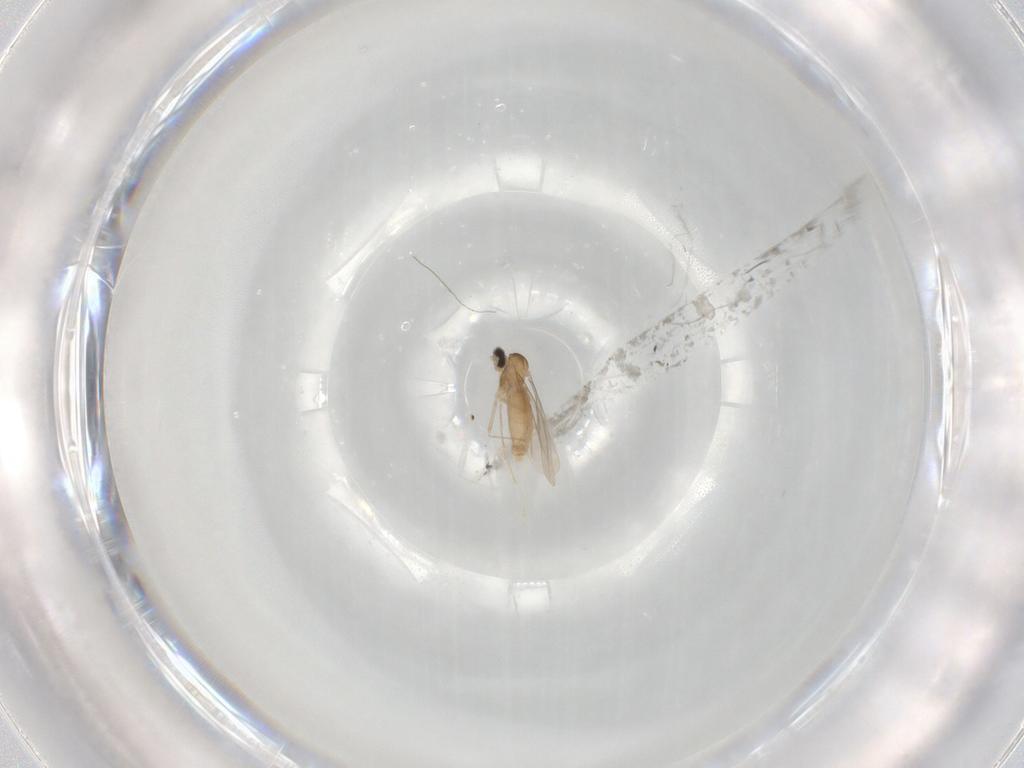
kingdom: Animalia
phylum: Arthropoda
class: Insecta
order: Diptera
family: Cecidomyiidae
